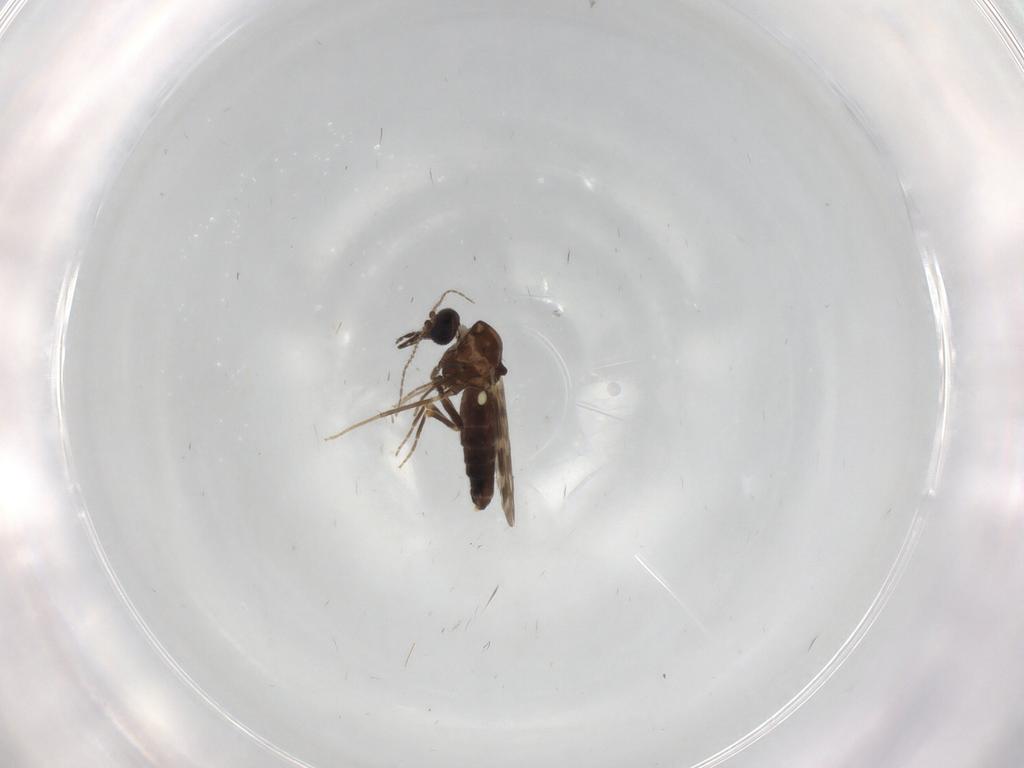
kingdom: Animalia
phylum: Arthropoda
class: Insecta
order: Diptera
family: Ceratopogonidae
